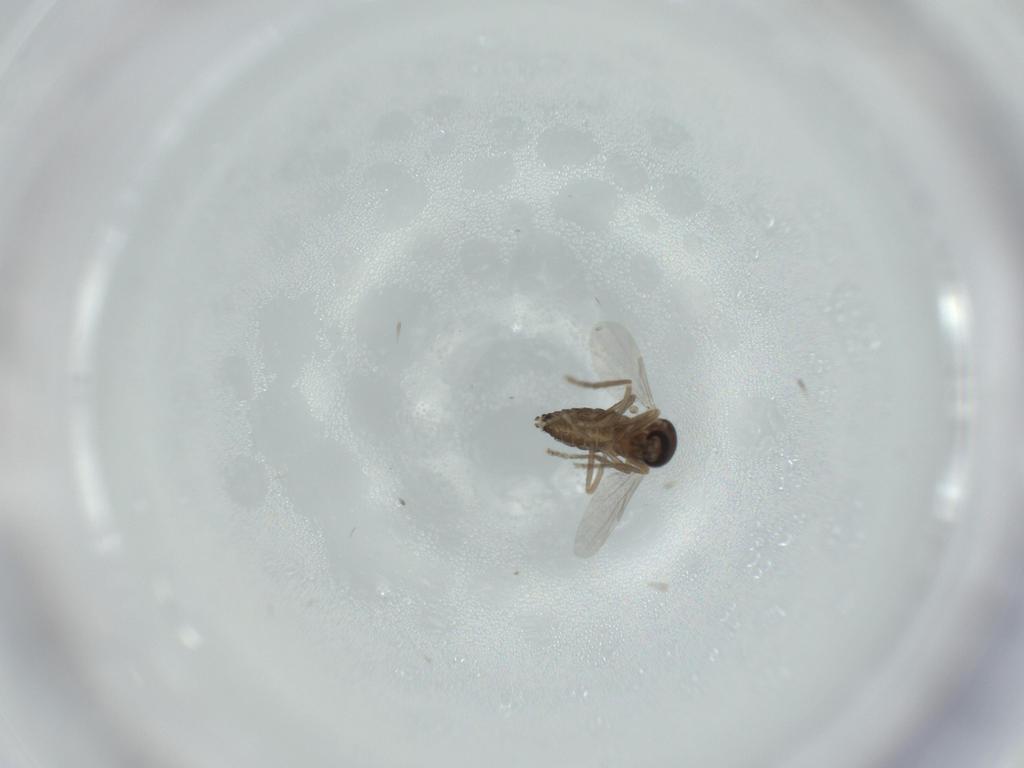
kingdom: Animalia
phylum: Arthropoda
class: Insecta
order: Diptera
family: Ceratopogonidae
